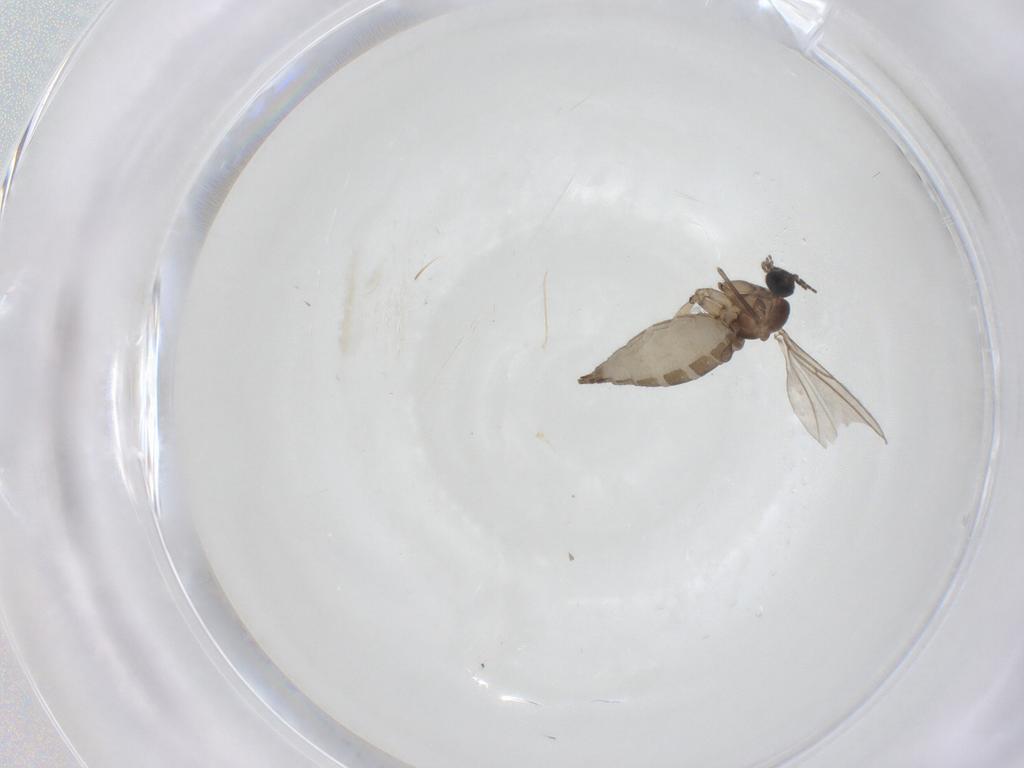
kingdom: Animalia
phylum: Arthropoda
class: Insecta
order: Diptera
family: Sciaridae
